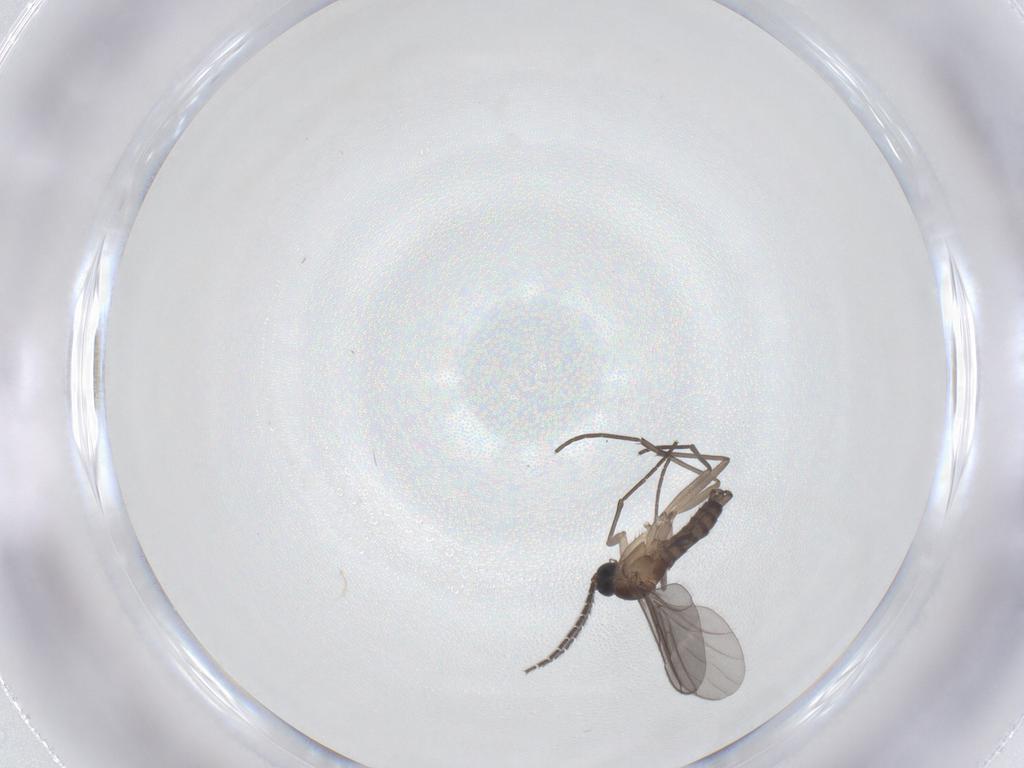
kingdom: Animalia
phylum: Arthropoda
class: Insecta
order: Diptera
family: Sciaridae
